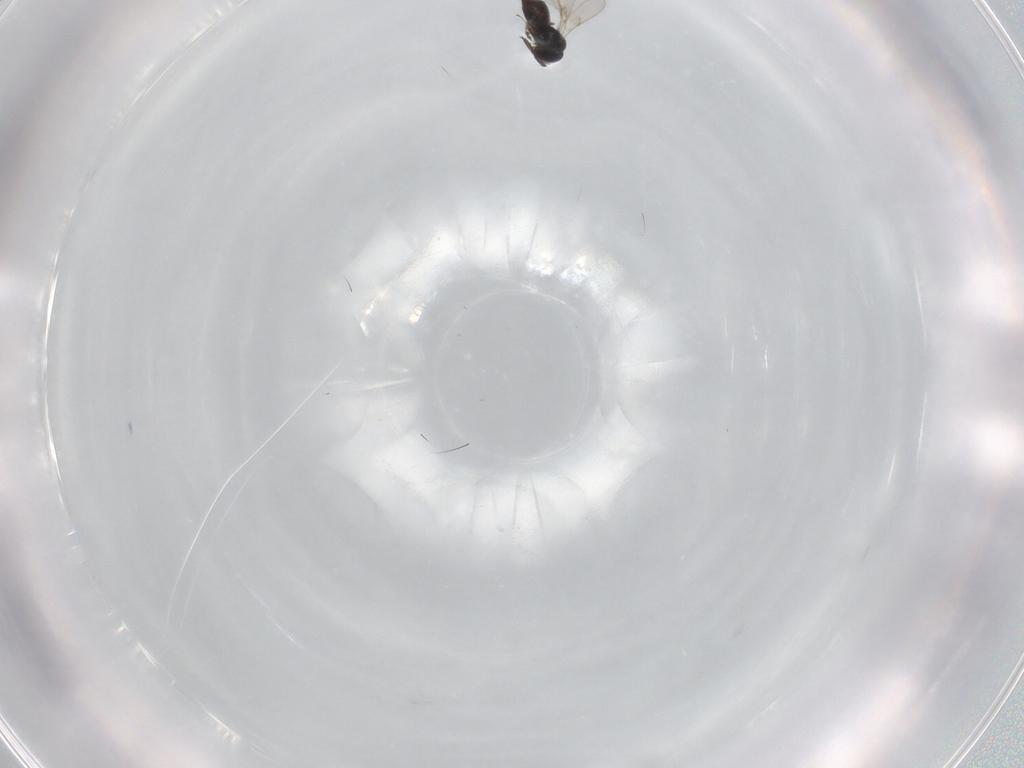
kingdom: Animalia
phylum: Arthropoda
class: Insecta
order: Hymenoptera
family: Scelionidae
